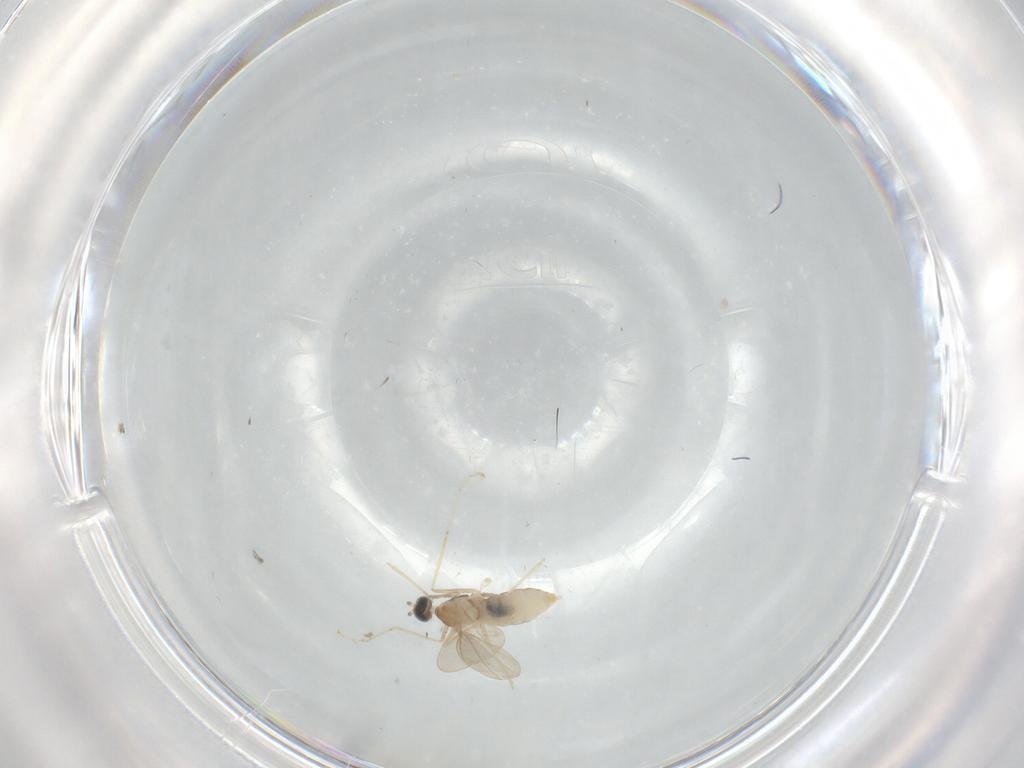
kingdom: Animalia
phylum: Arthropoda
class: Insecta
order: Diptera
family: Cecidomyiidae
